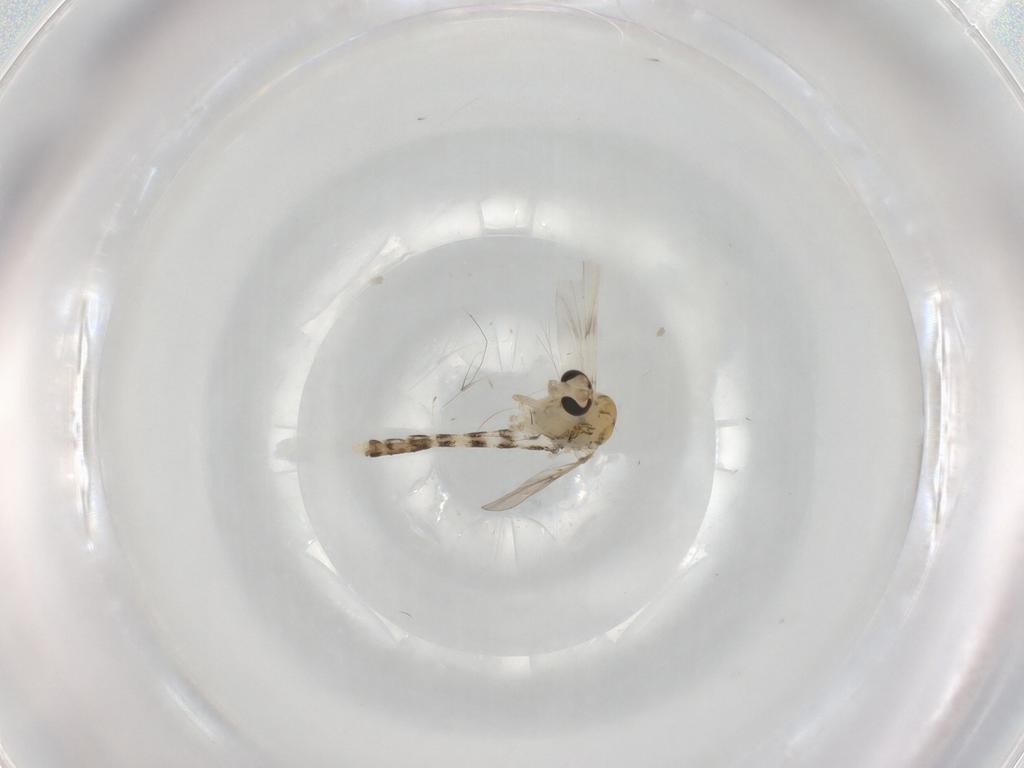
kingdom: Animalia
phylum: Arthropoda
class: Insecta
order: Diptera
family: Chironomidae
